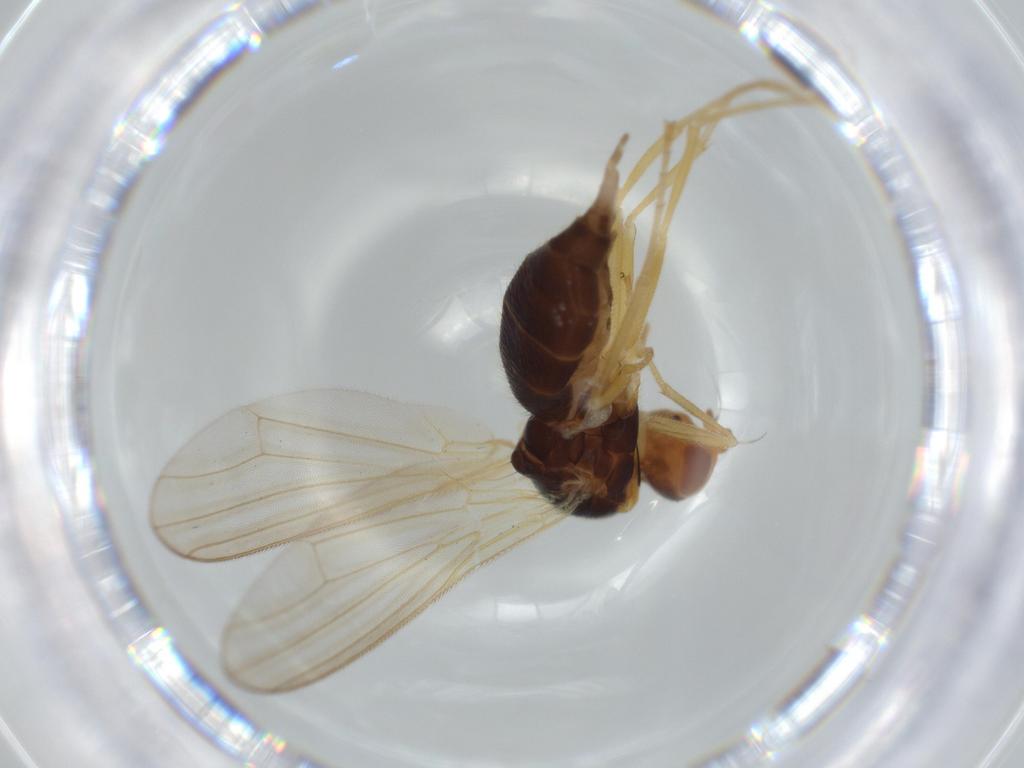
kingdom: Animalia
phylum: Arthropoda
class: Insecta
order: Diptera
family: Psilidae
